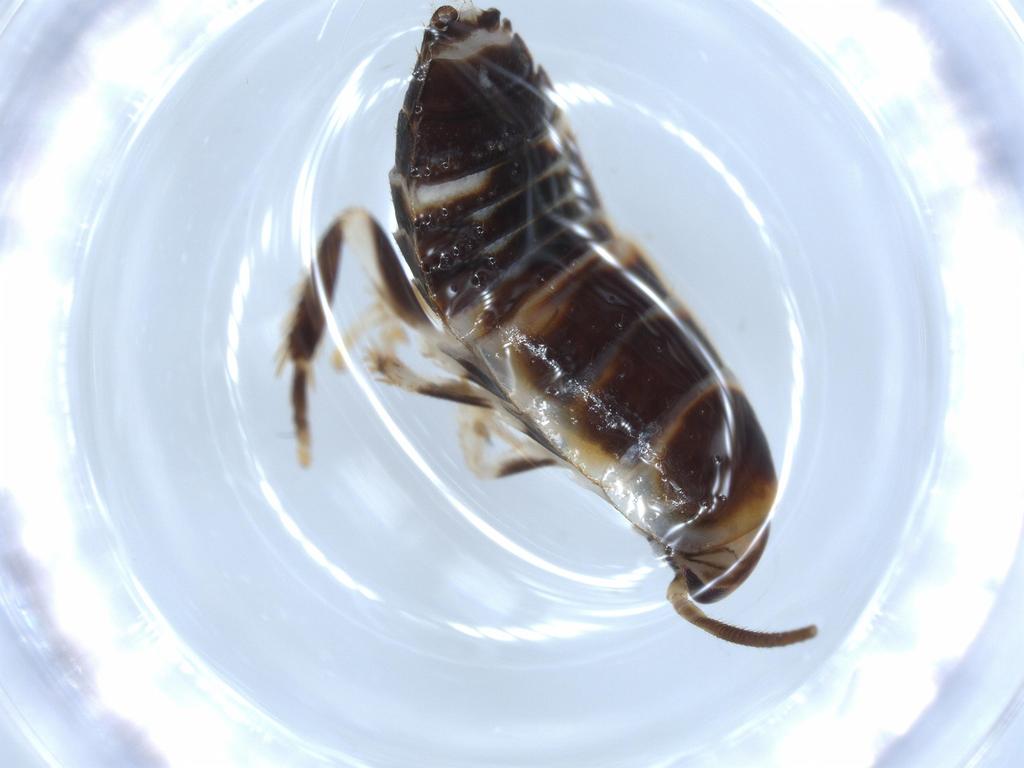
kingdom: Animalia
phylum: Arthropoda
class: Insecta
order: Blattodea
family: Ectobiidae
